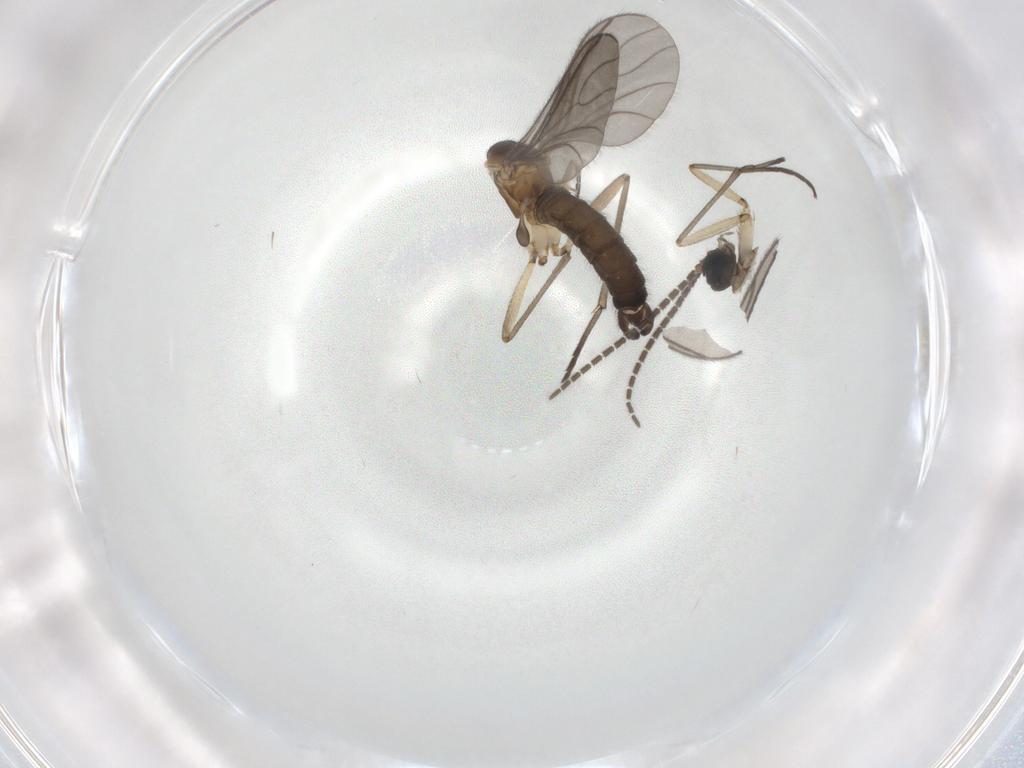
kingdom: Animalia
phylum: Arthropoda
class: Insecta
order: Diptera
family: Sciaridae
